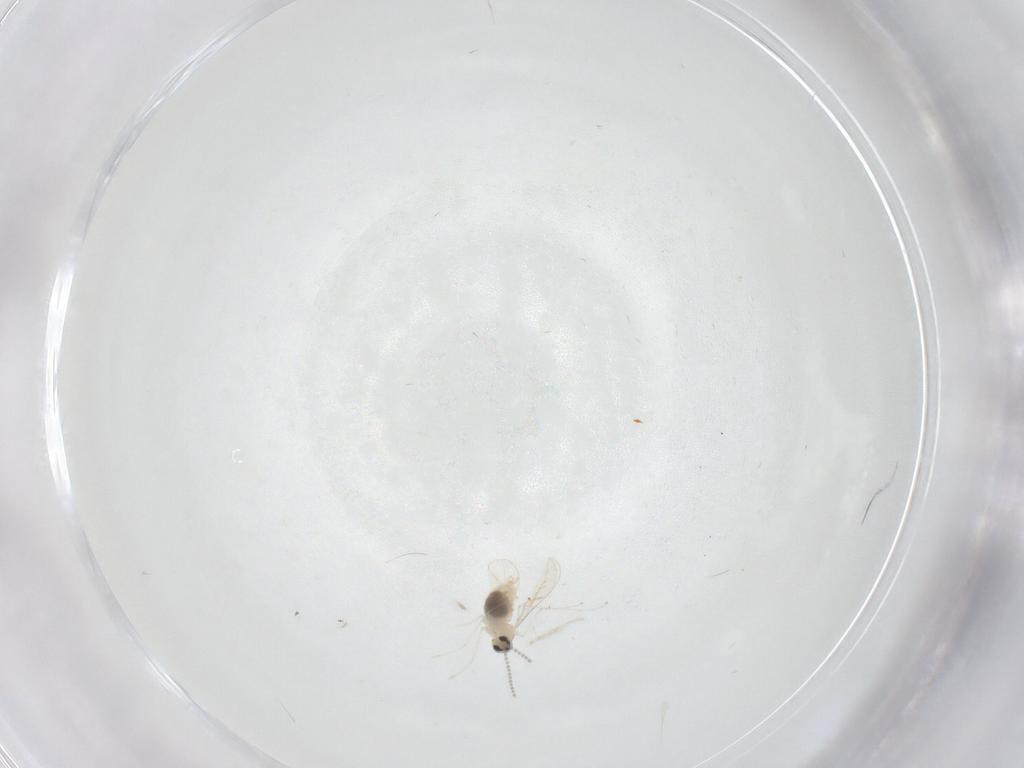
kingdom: Animalia
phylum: Arthropoda
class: Insecta
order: Diptera
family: Cecidomyiidae
